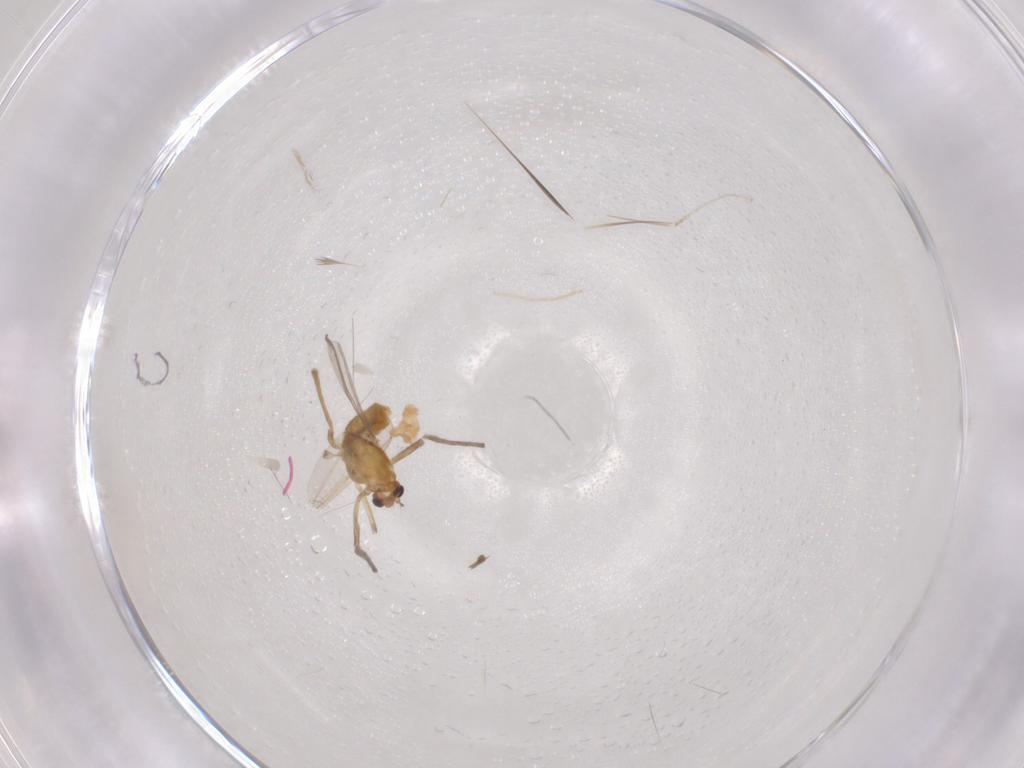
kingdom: Animalia
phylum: Arthropoda
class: Insecta
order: Diptera
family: Chironomidae
